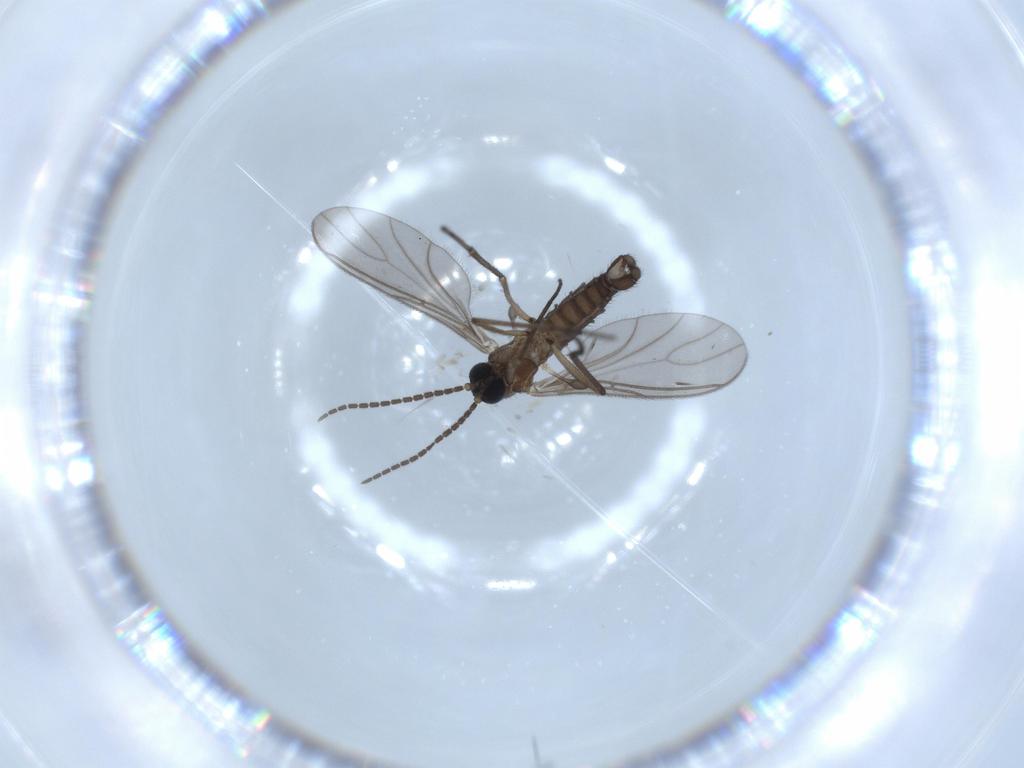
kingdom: Animalia
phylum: Arthropoda
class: Insecta
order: Diptera
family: Sciaridae
